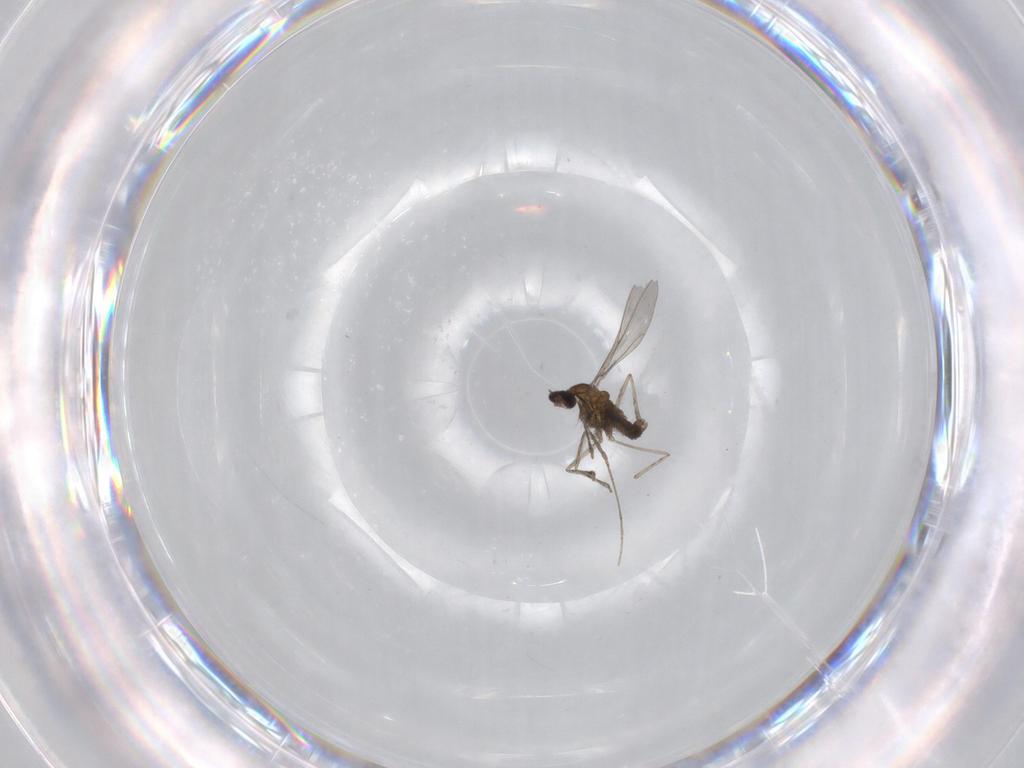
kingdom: Animalia
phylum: Arthropoda
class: Insecta
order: Diptera
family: Cecidomyiidae
